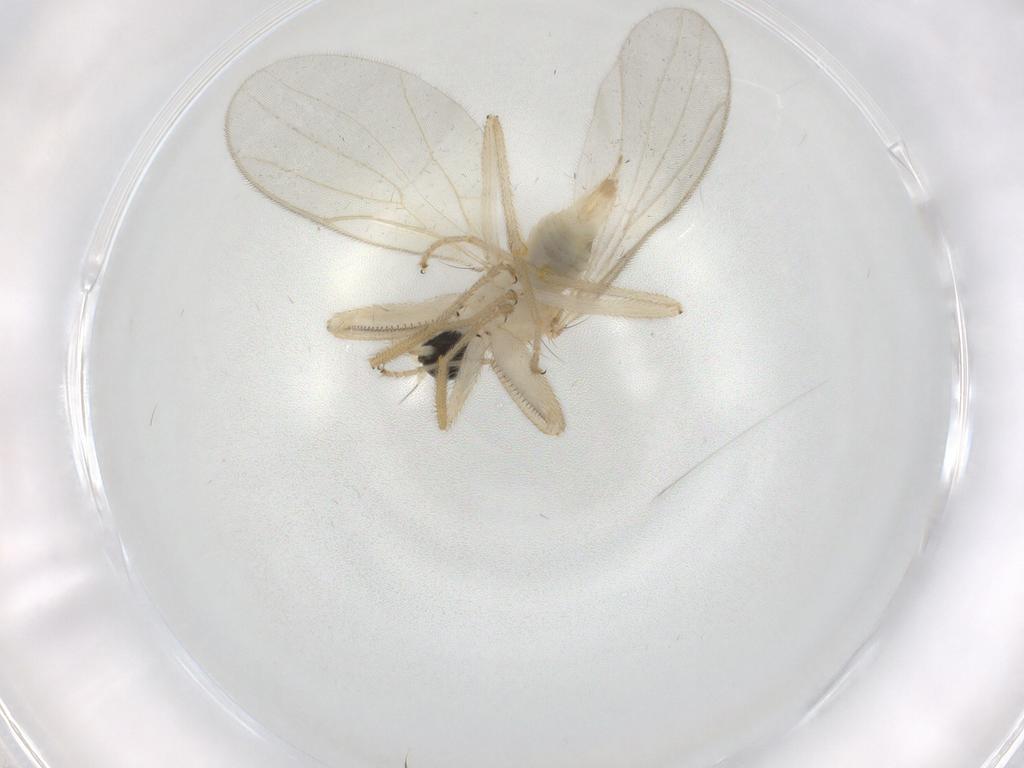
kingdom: Animalia
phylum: Arthropoda
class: Insecta
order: Diptera
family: Hybotidae
